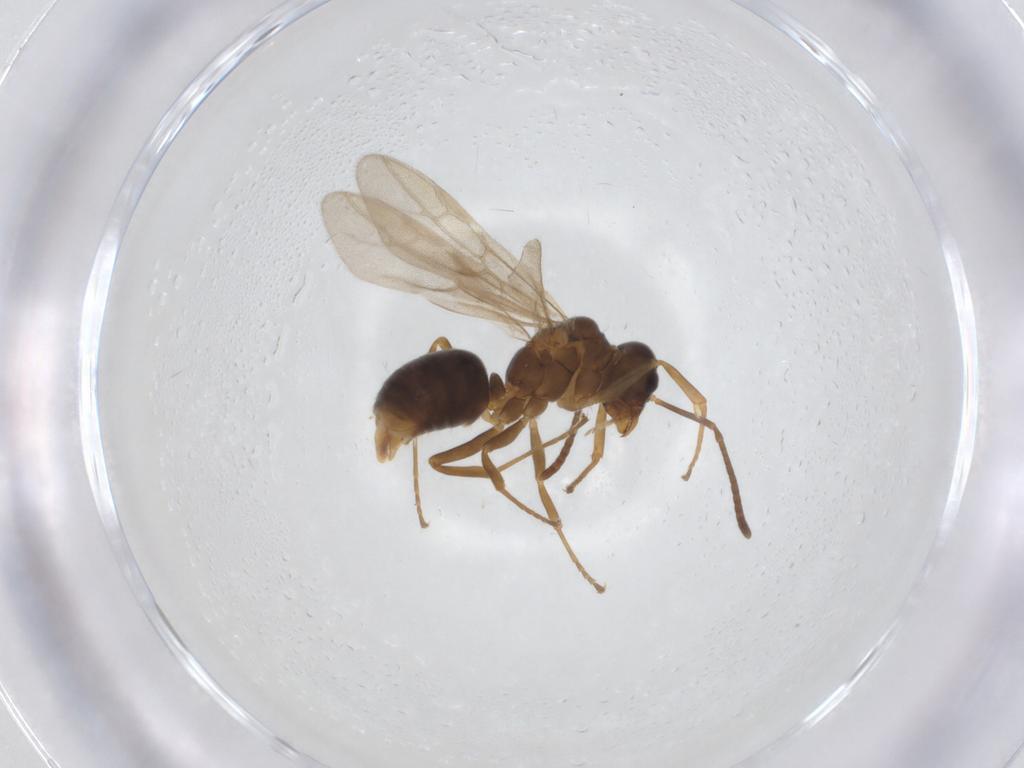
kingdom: Animalia
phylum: Arthropoda
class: Insecta
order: Hymenoptera
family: Formicidae
